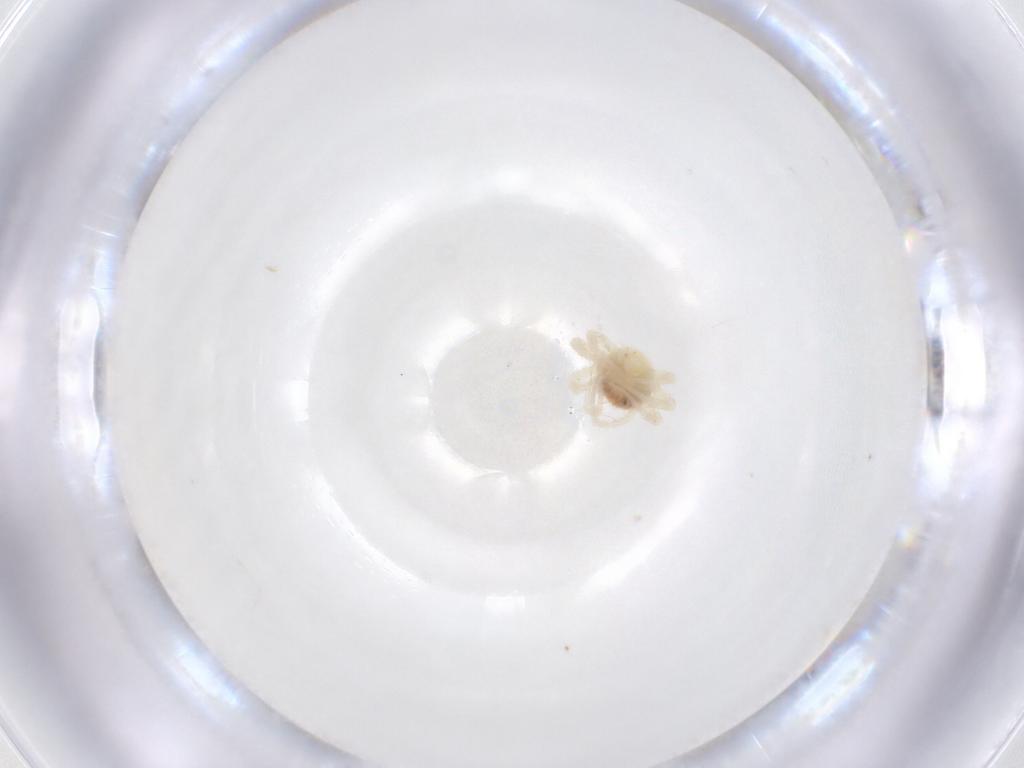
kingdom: Animalia
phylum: Arthropoda
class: Arachnida
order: Trombidiformes
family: Anystidae
